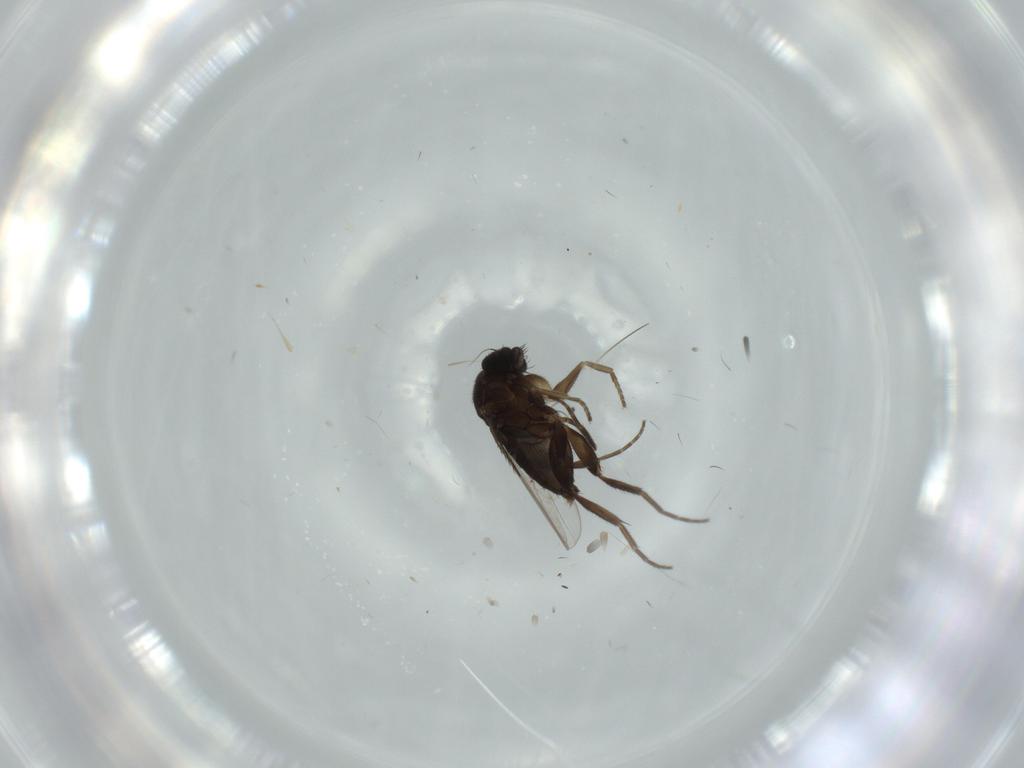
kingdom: Animalia
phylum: Arthropoda
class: Insecta
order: Diptera
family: Phoridae
